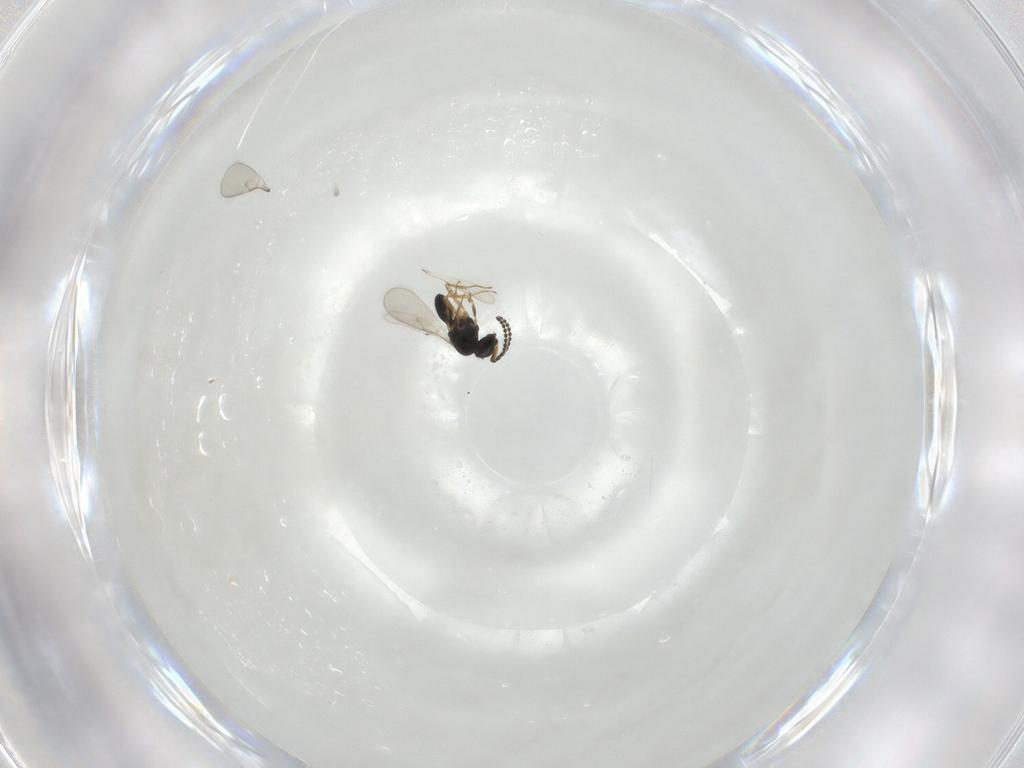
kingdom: Animalia
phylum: Arthropoda
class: Insecta
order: Hymenoptera
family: Scelionidae
